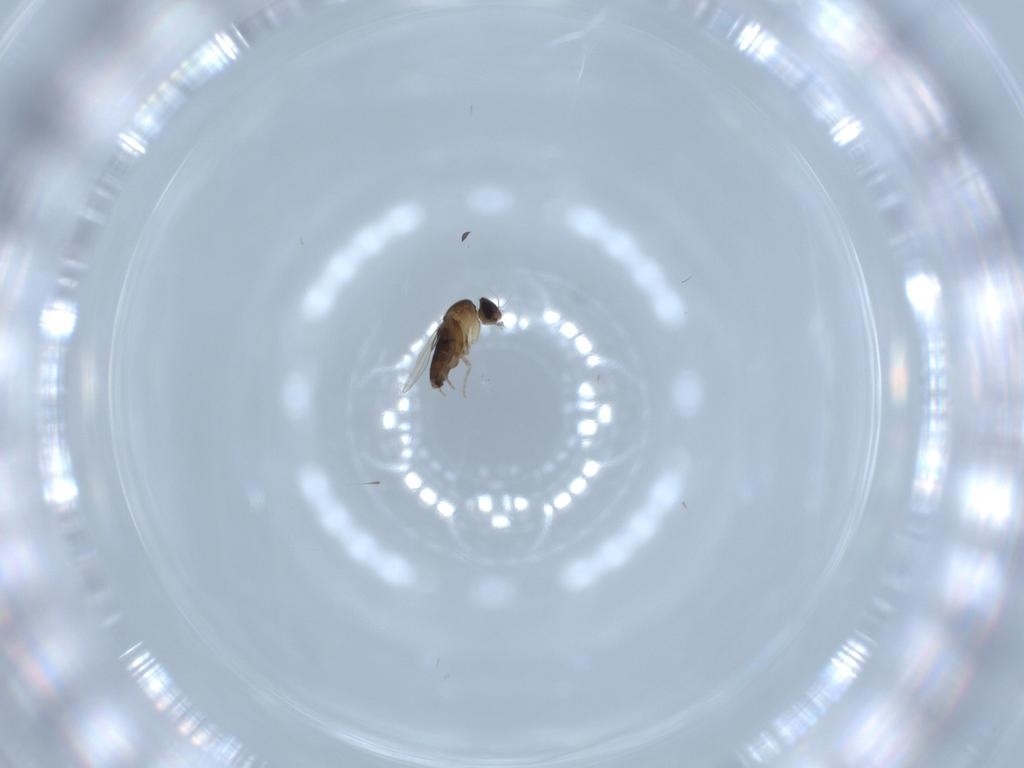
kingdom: Animalia
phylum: Arthropoda
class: Insecta
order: Diptera
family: Phoridae
